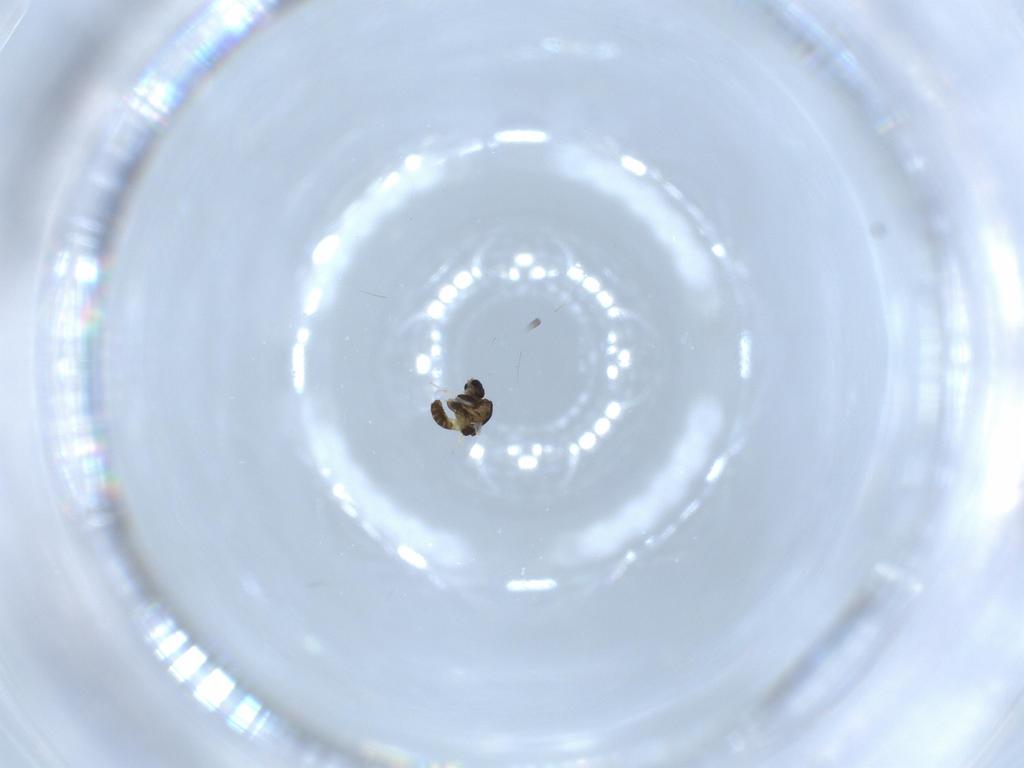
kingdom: Animalia
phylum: Arthropoda
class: Insecta
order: Diptera
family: Chironomidae
